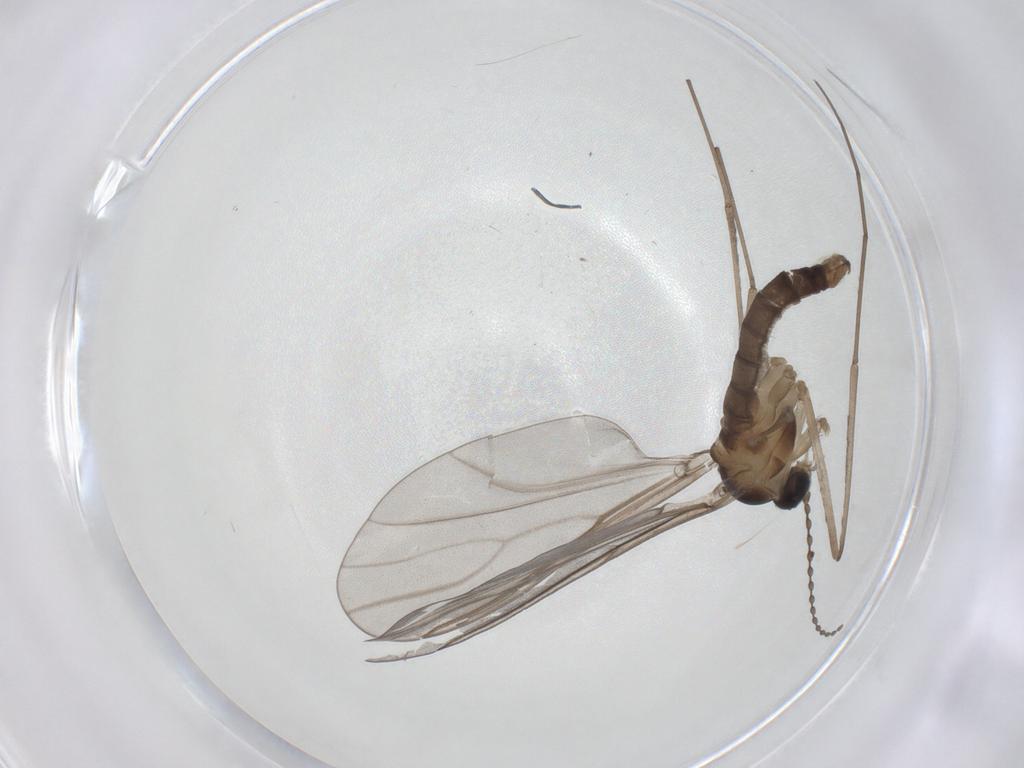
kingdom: Animalia
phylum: Arthropoda
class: Insecta
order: Diptera
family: Cecidomyiidae
